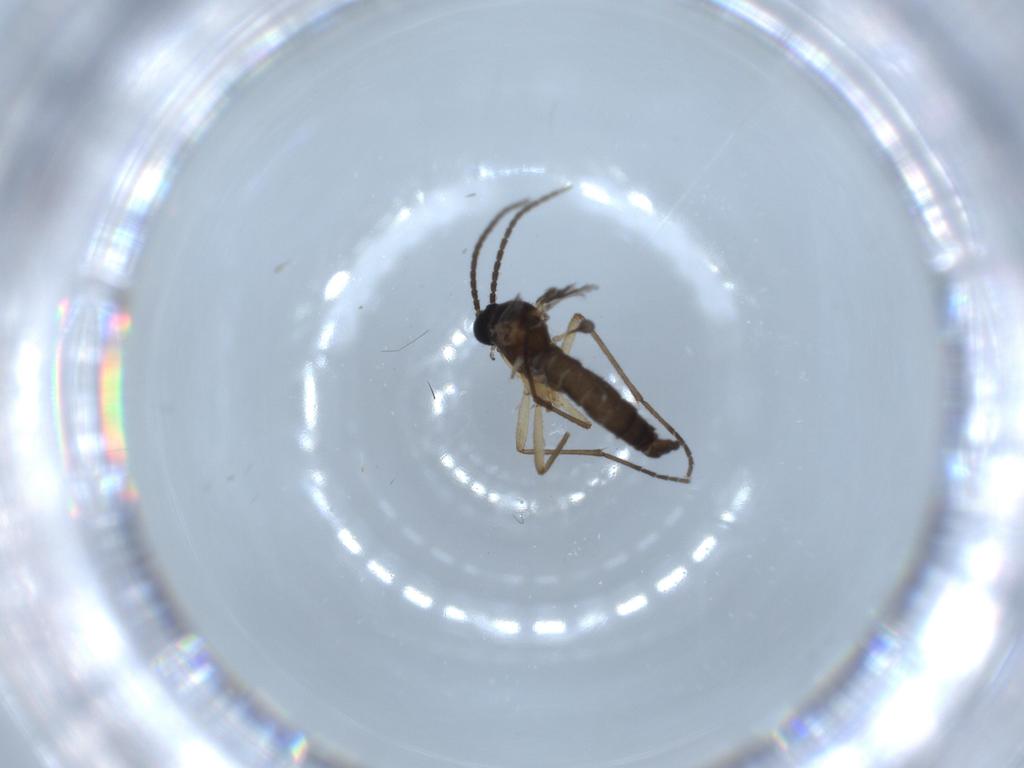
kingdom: Animalia
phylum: Arthropoda
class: Insecta
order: Diptera
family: Sciaridae
